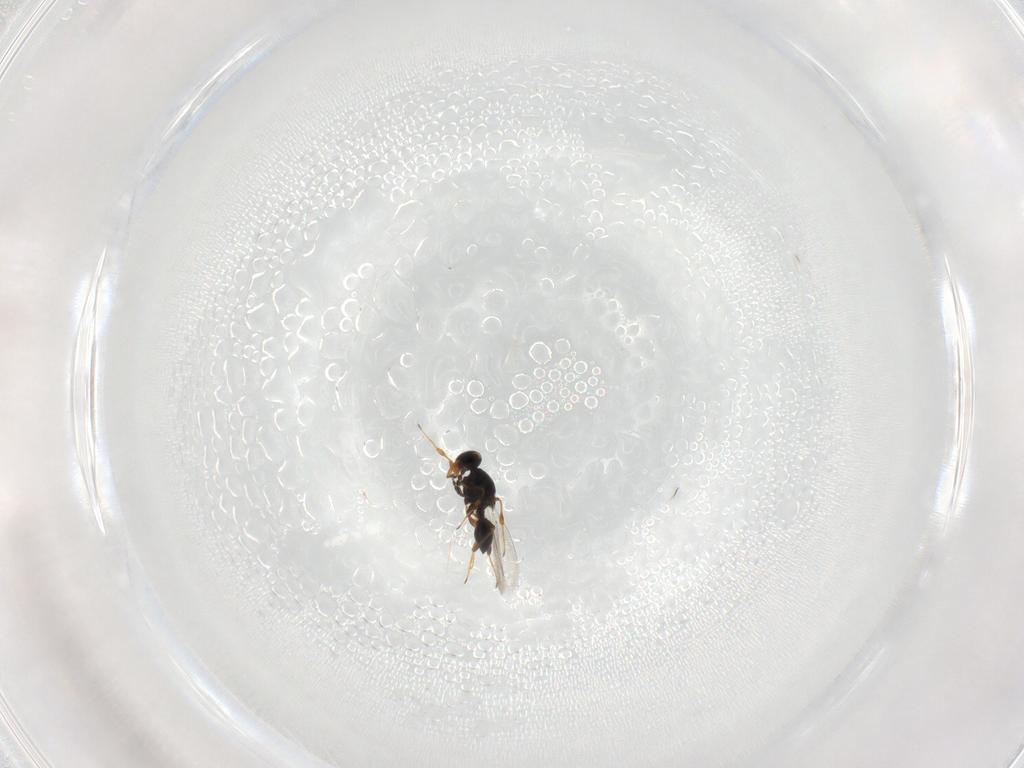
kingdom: Animalia
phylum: Arthropoda
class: Insecta
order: Hymenoptera
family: Platygastridae
